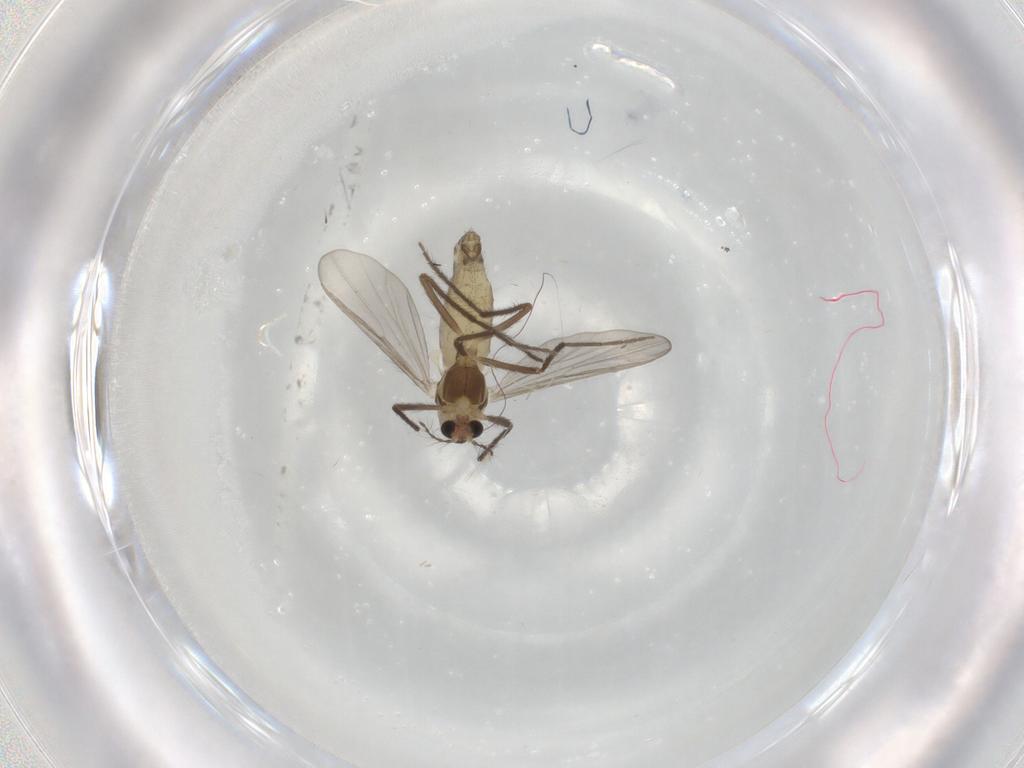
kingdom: Animalia
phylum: Arthropoda
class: Insecta
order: Diptera
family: Chironomidae
